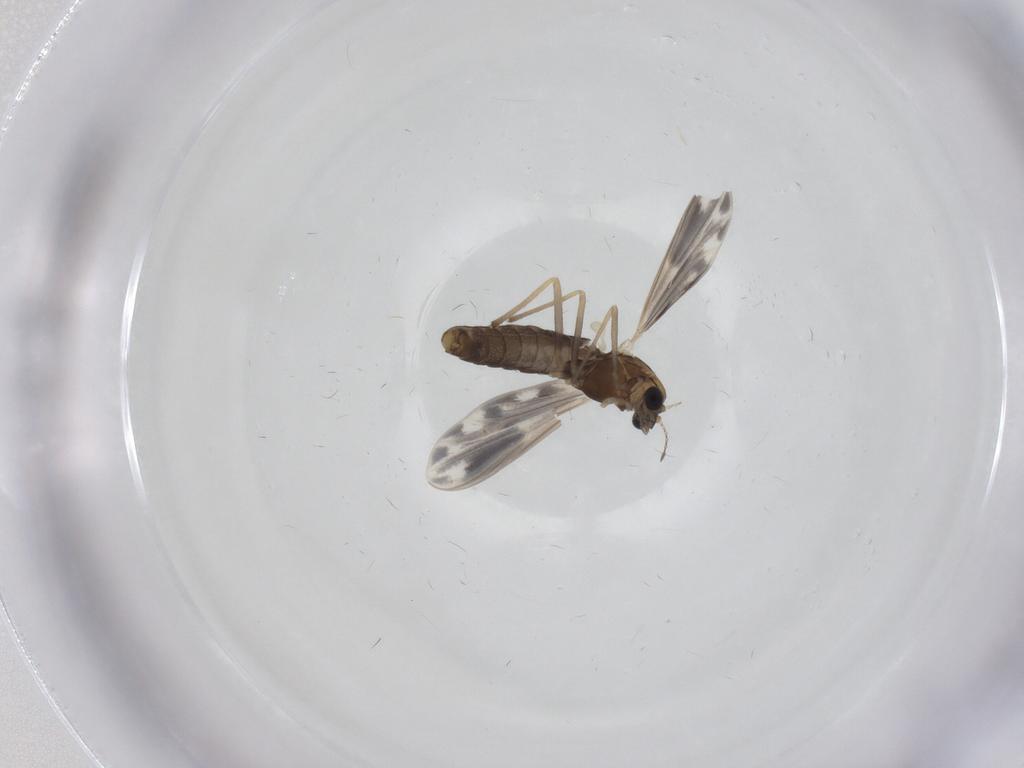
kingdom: Animalia
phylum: Arthropoda
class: Insecta
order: Diptera
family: Chironomidae
